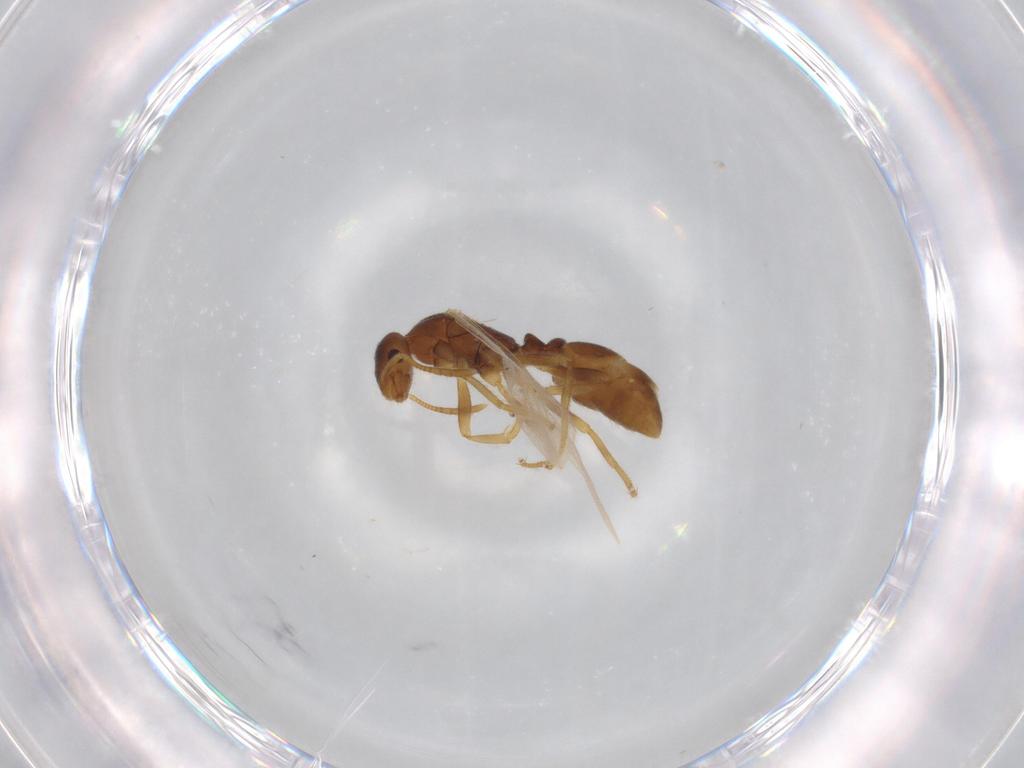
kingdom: Animalia
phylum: Arthropoda
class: Insecta
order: Hymenoptera
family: Formicidae
